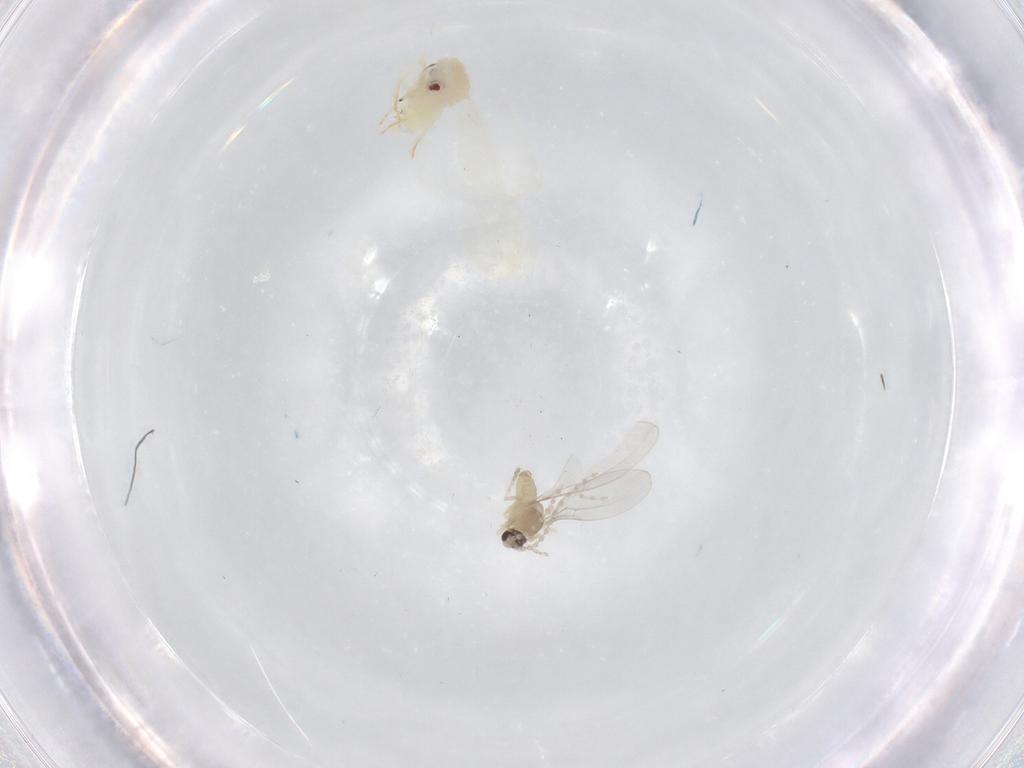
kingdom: Animalia
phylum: Arthropoda
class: Insecta
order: Diptera
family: Cecidomyiidae
